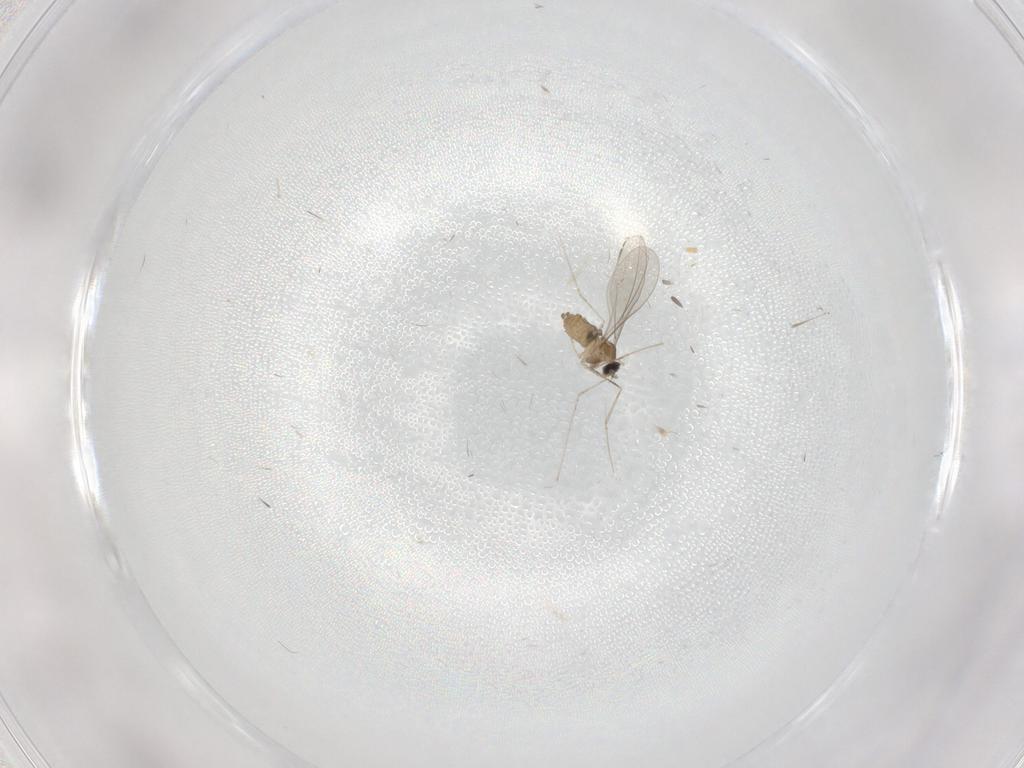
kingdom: Animalia
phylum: Arthropoda
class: Insecta
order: Diptera
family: Cecidomyiidae
